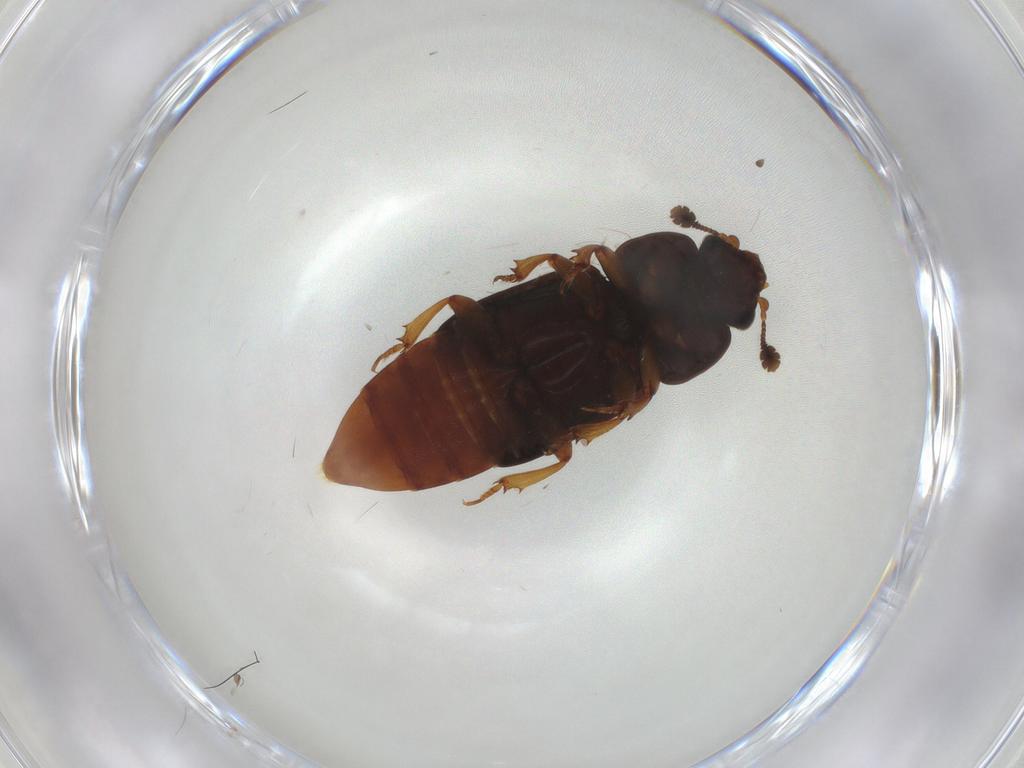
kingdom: Animalia
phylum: Arthropoda
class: Insecta
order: Coleoptera
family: Nitidulidae
